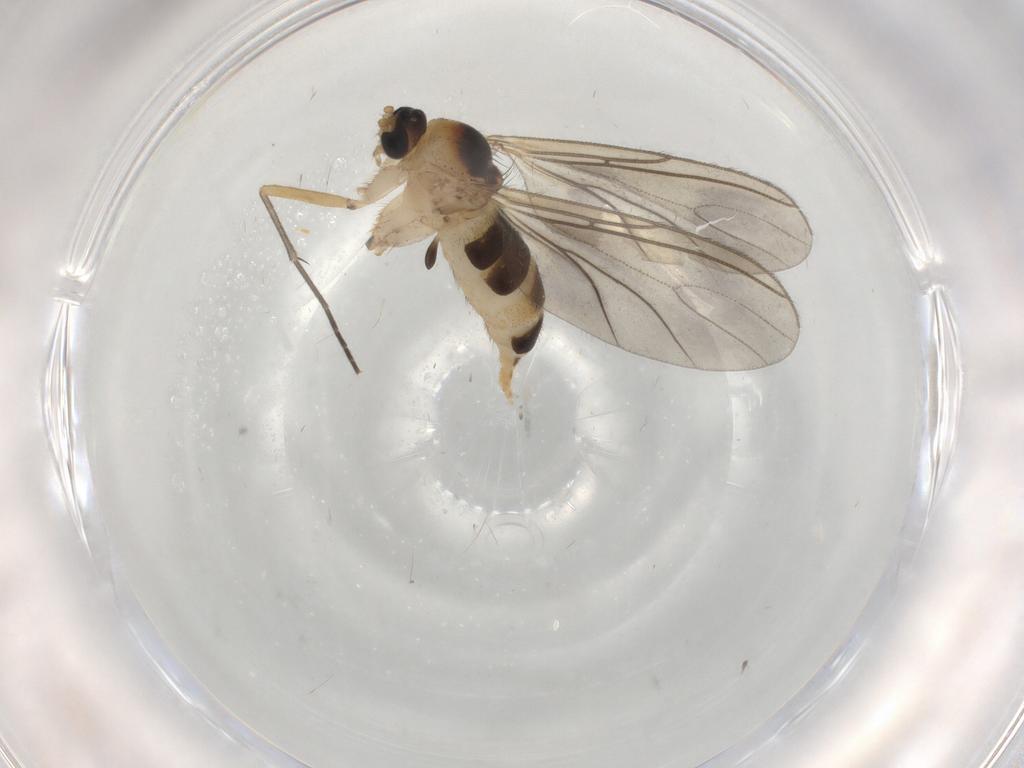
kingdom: Animalia
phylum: Arthropoda
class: Insecta
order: Diptera
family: Sciaridae
